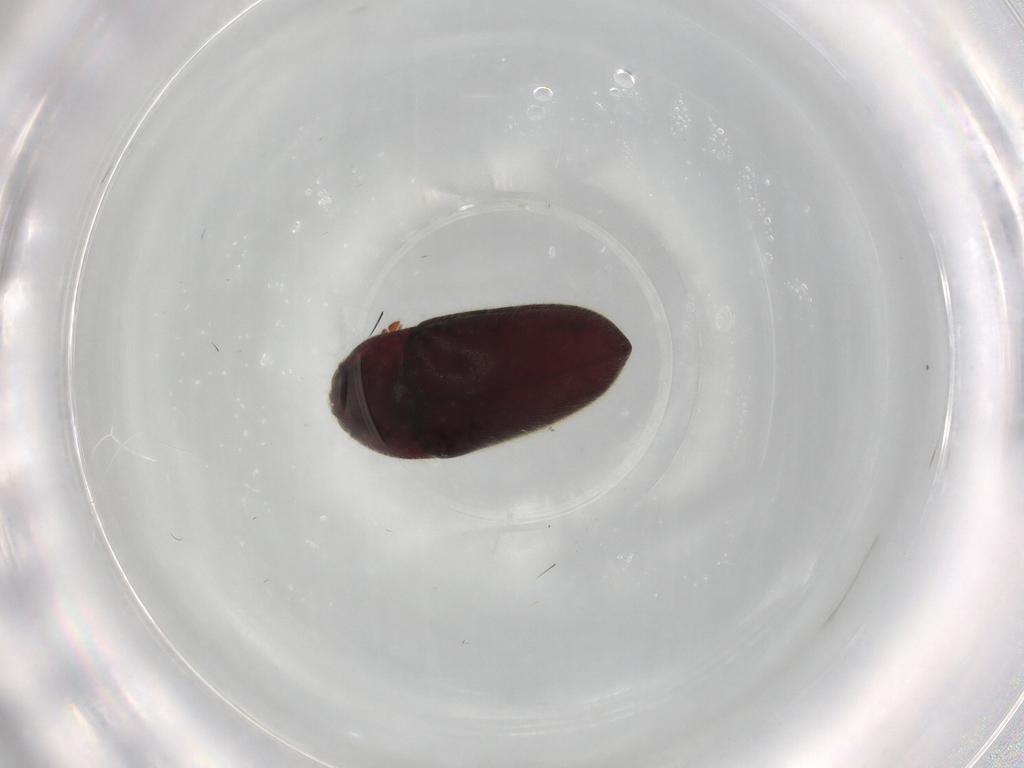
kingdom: Animalia
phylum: Arthropoda
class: Insecta
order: Coleoptera
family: Throscidae
